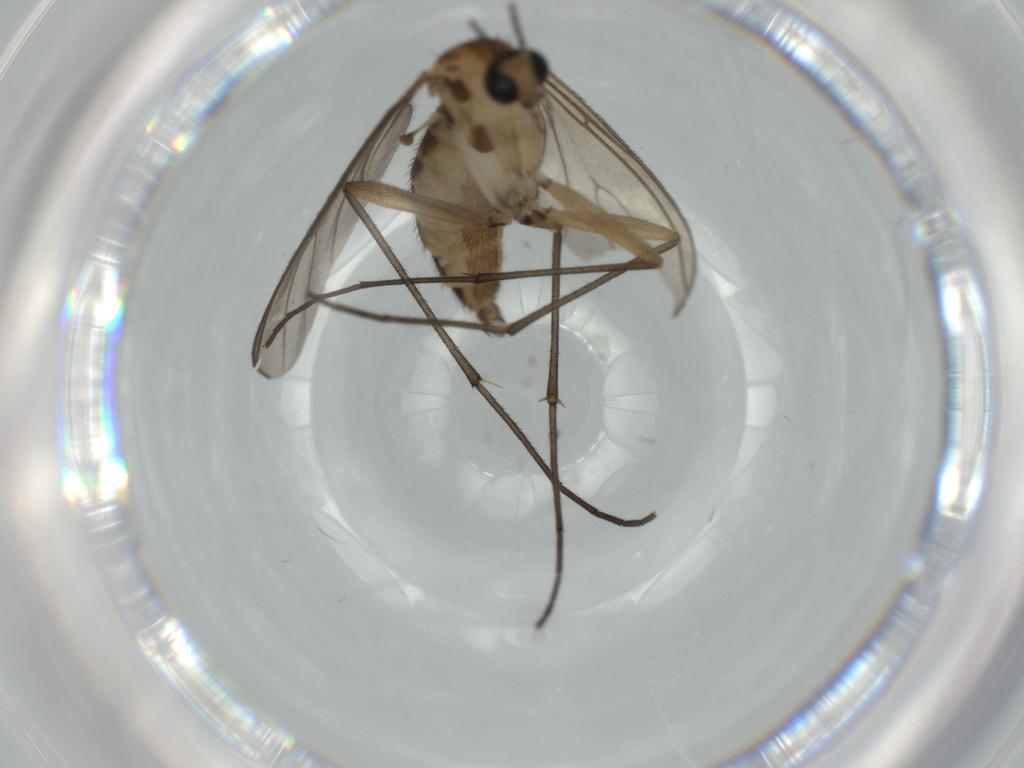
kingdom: Animalia
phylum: Arthropoda
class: Insecta
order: Diptera
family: Sciaridae
